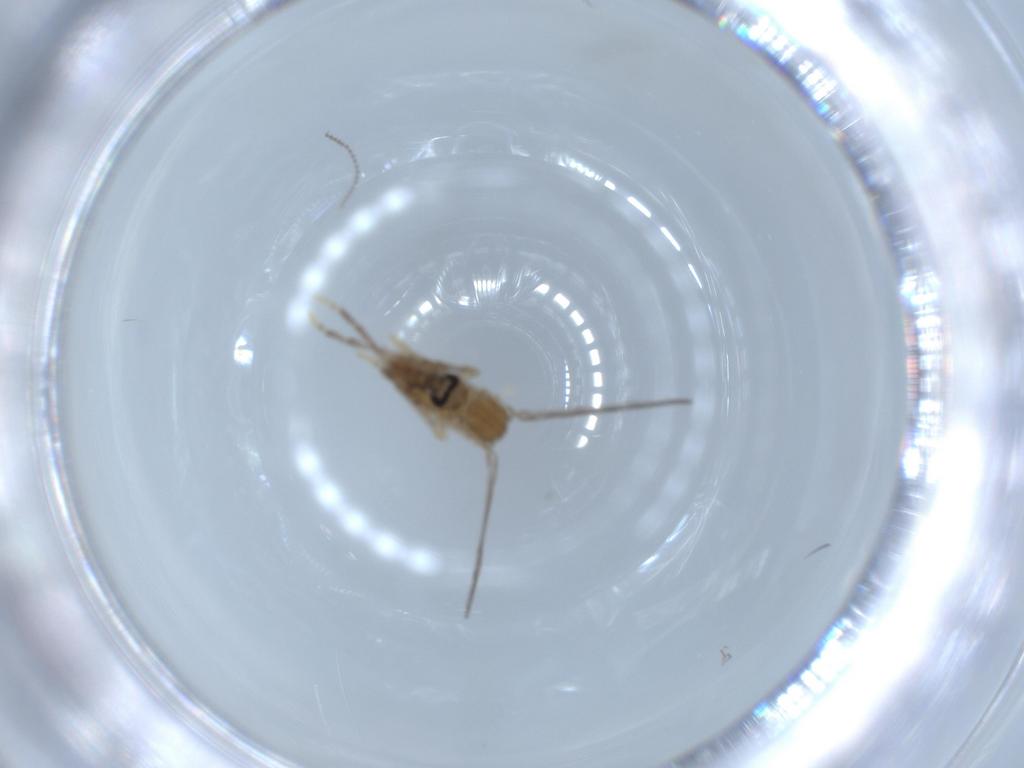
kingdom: Animalia
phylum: Arthropoda
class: Insecta
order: Diptera
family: Psychodidae
